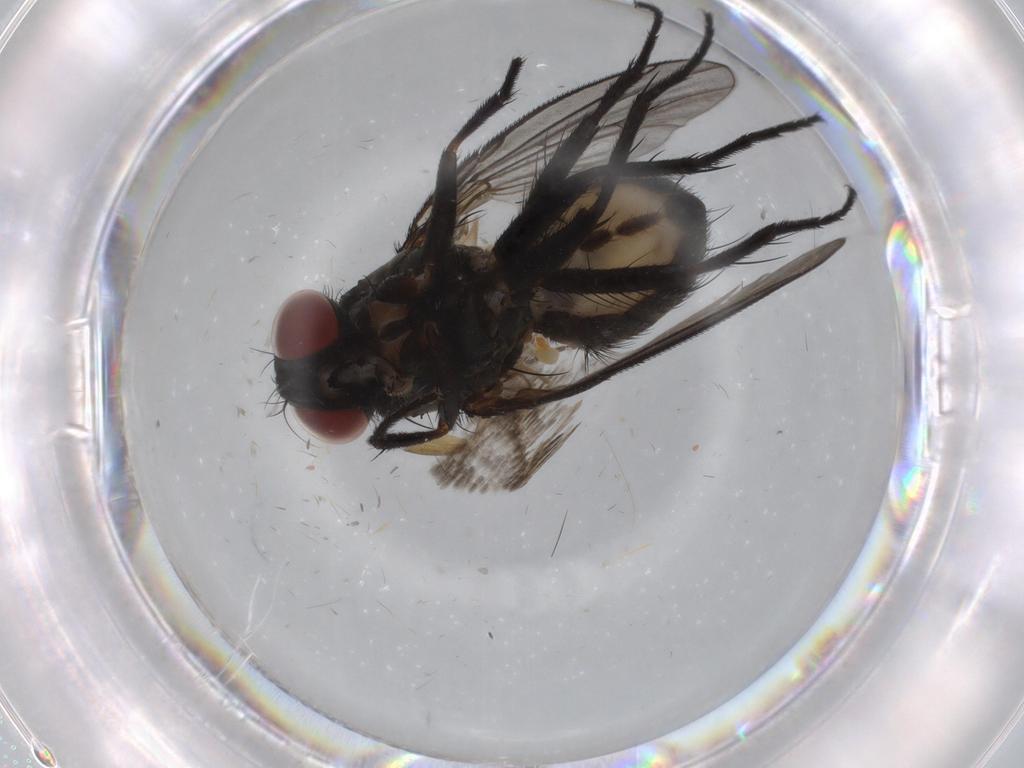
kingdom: Animalia
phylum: Arthropoda
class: Insecta
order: Diptera
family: Muscidae
